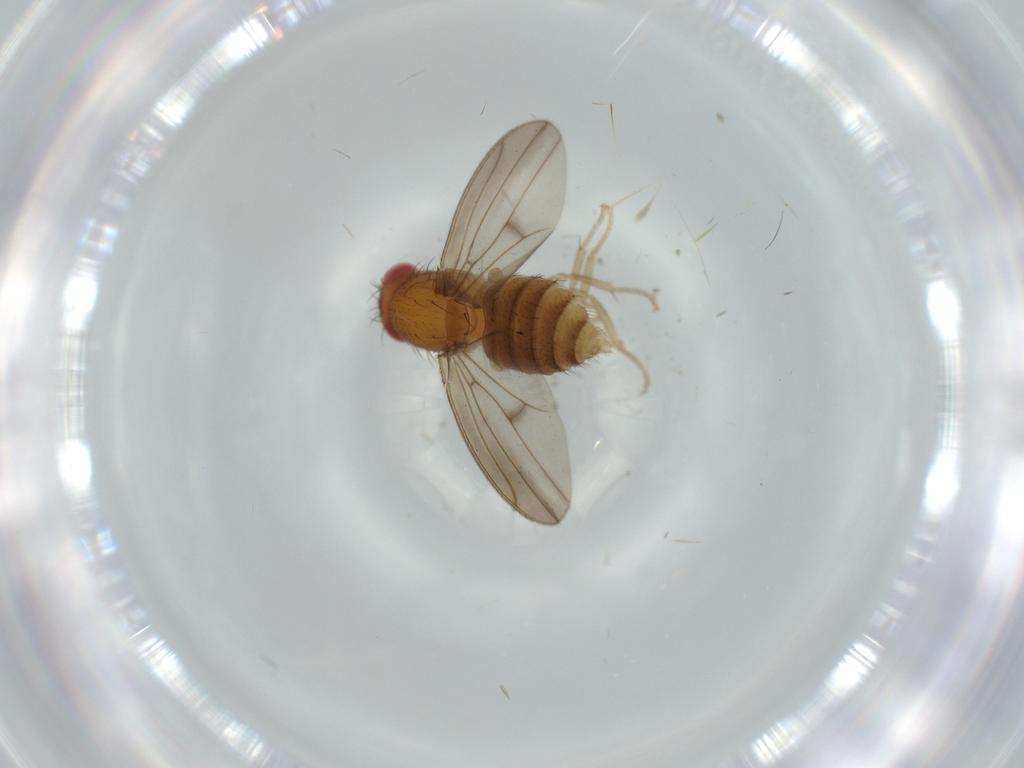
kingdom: Animalia
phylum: Arthropoda
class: Insecta
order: Diptera
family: Drosophilidae
